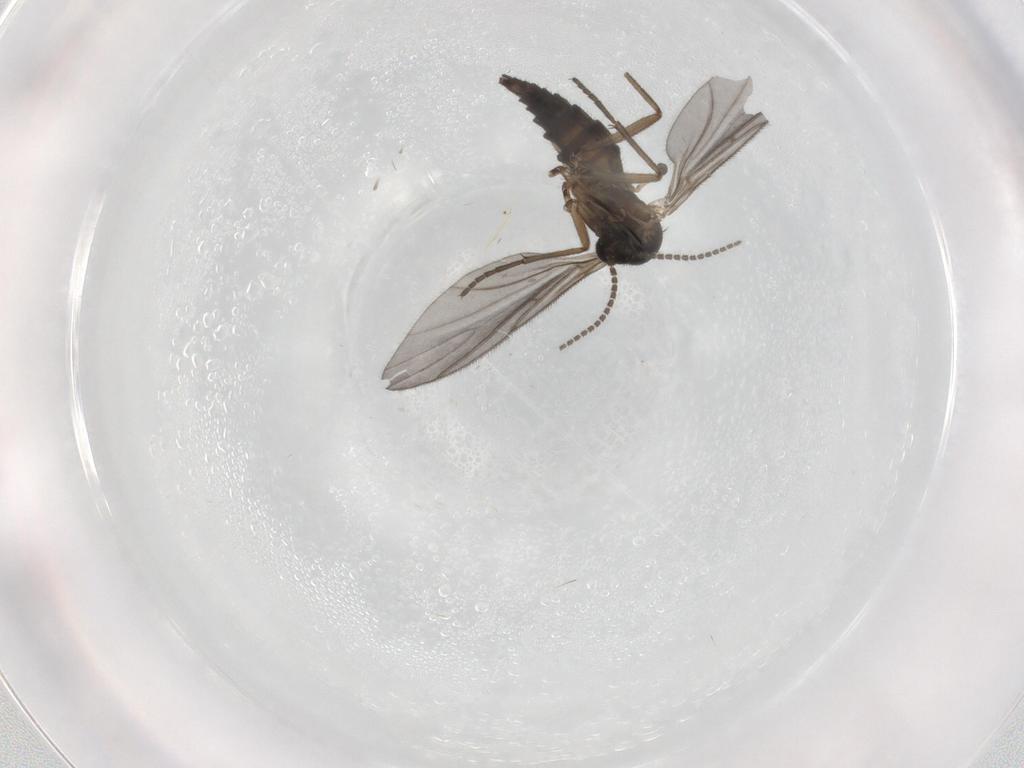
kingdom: Animalia
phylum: Arthropoda
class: Insecta
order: Diptera
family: Sciaridae
